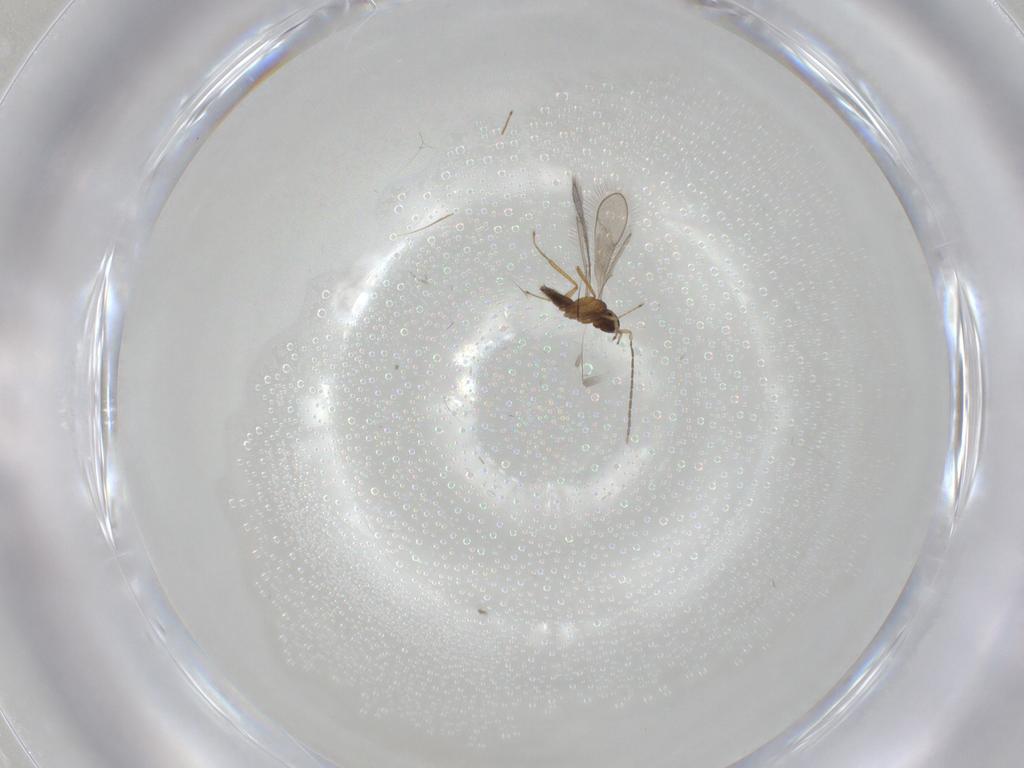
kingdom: Animalia
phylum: Arthropoda
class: Insecta
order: Hymenoptera
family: Mymaridae
